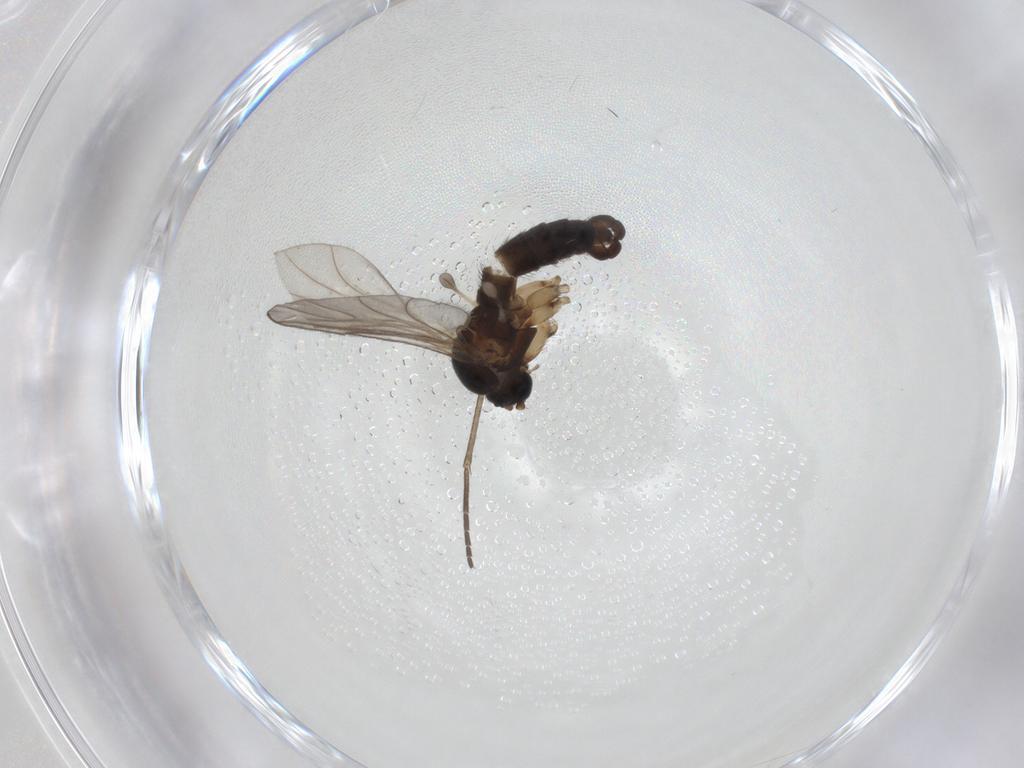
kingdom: Animalia
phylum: Arthropoda
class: Insecta
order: Diptera
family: Sciaridae
